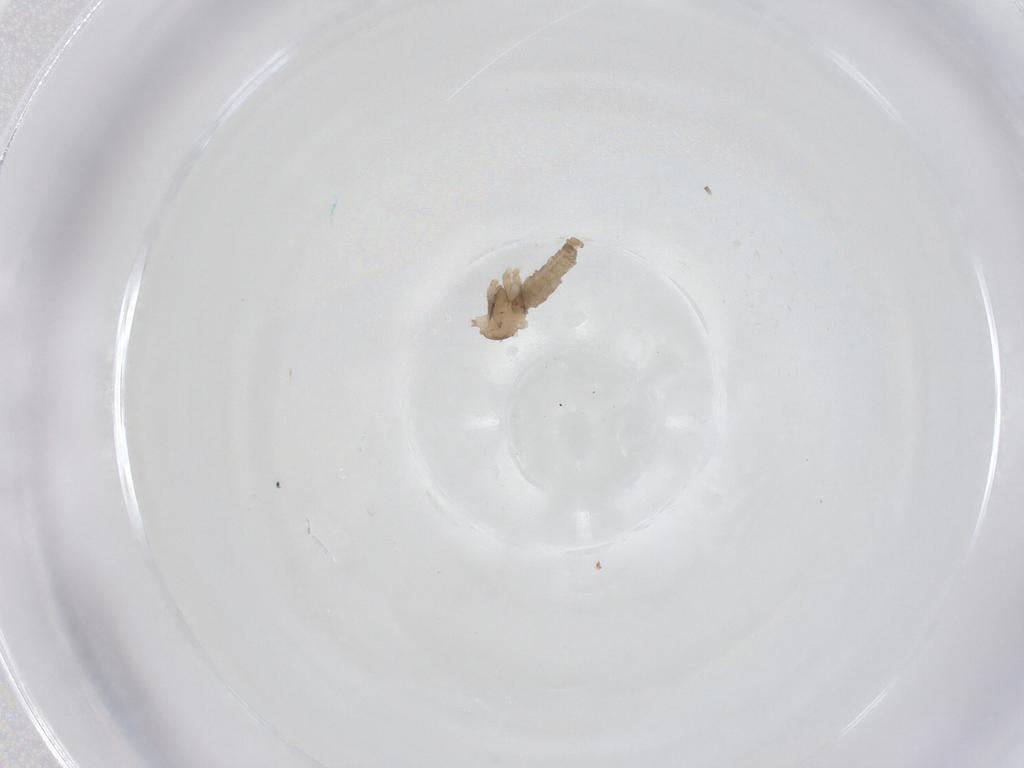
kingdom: Animalia
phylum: Arthropoda
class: Insecta
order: Diptera
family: Cecidomyiidae
